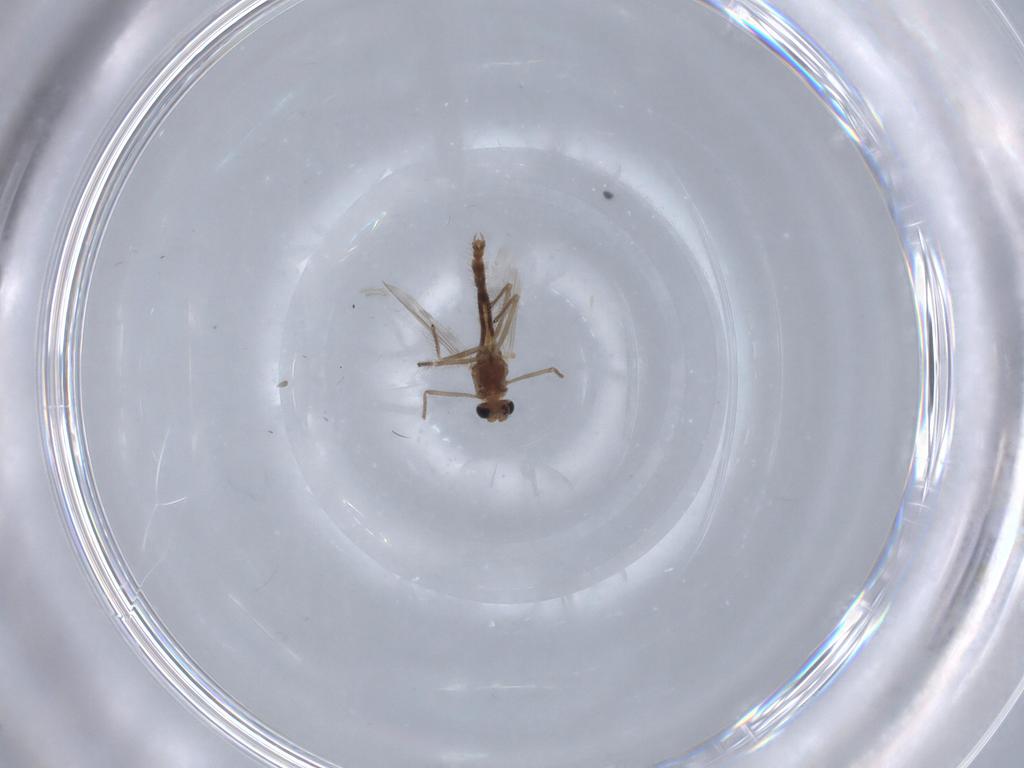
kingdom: Animalia
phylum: Arthropoda
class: Insecta
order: Diptera
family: Chironomidae
